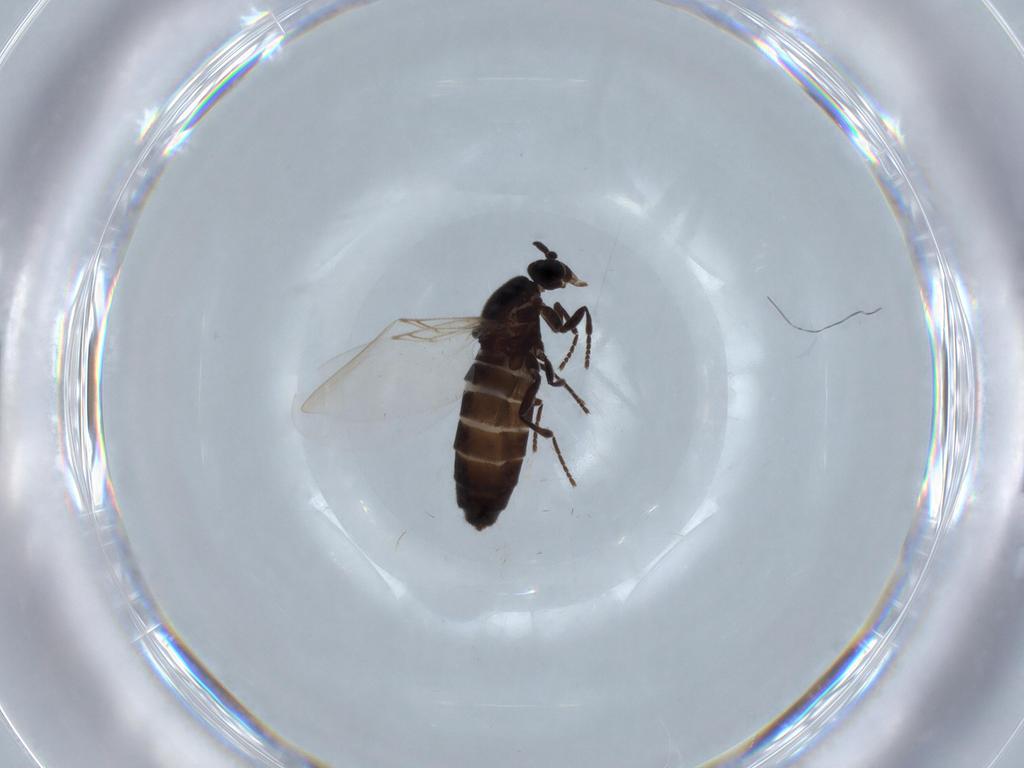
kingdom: Animalia
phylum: Arthropoda
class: Insecta
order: Diptera
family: Scatopsidae
